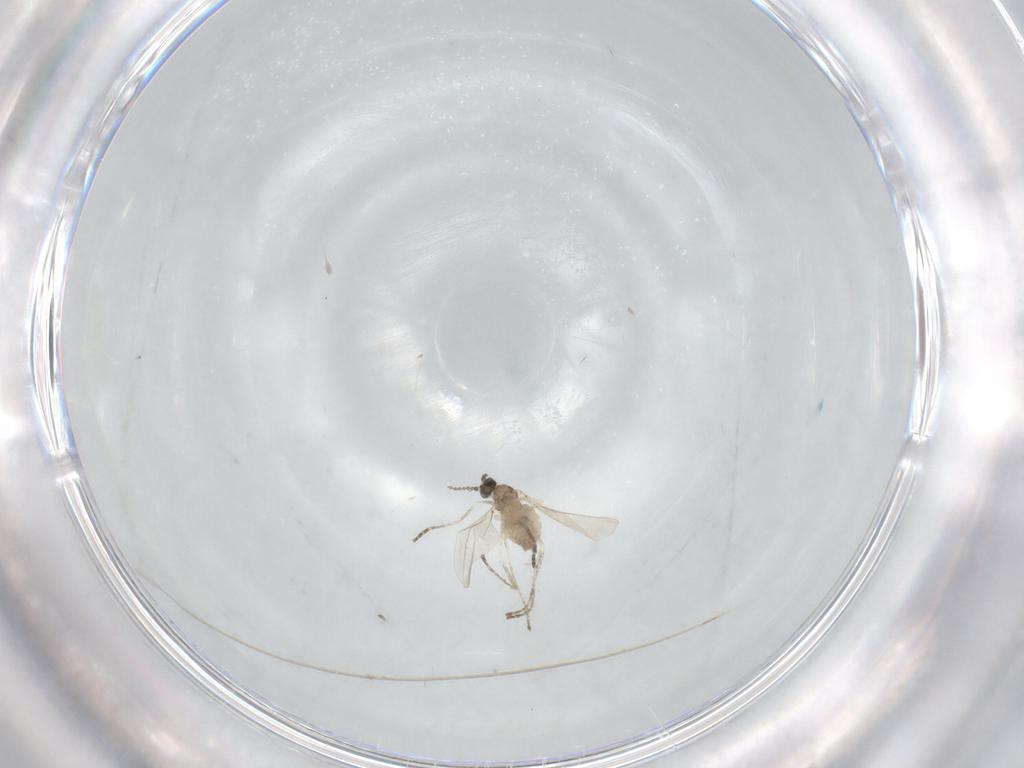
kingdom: Animalia
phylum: Arthropoda
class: Insecta
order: Diptera
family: Cecidomyiidae
